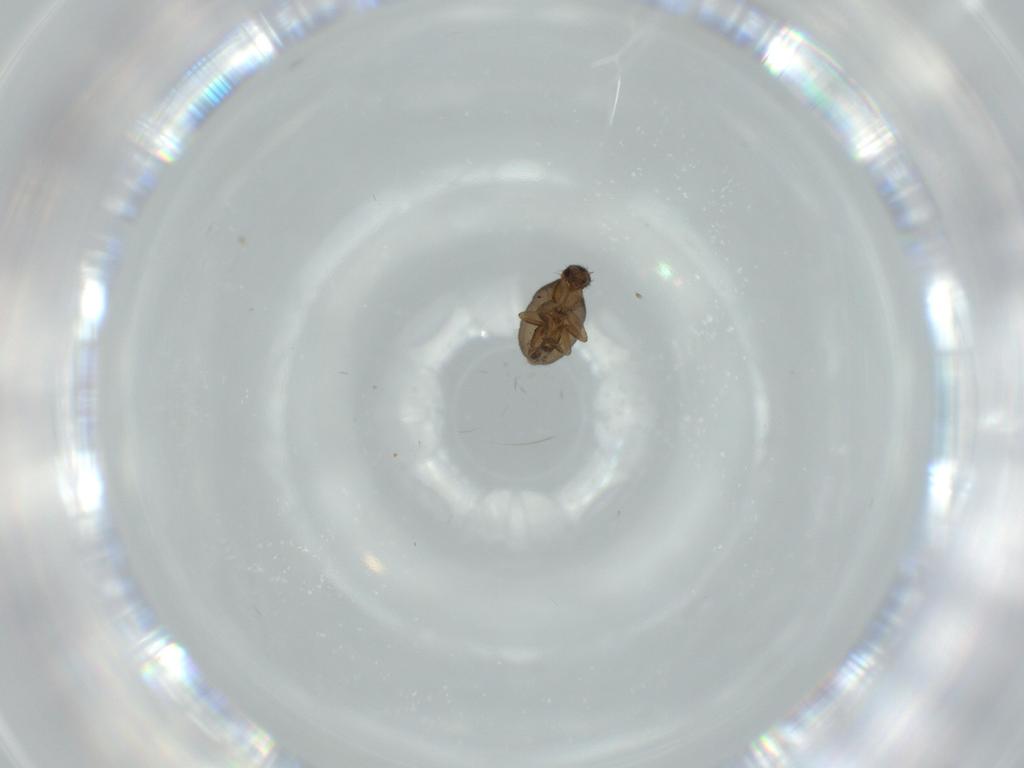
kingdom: Animalia
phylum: Arthropoda
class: Insecta
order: Diptera
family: Phoridae
